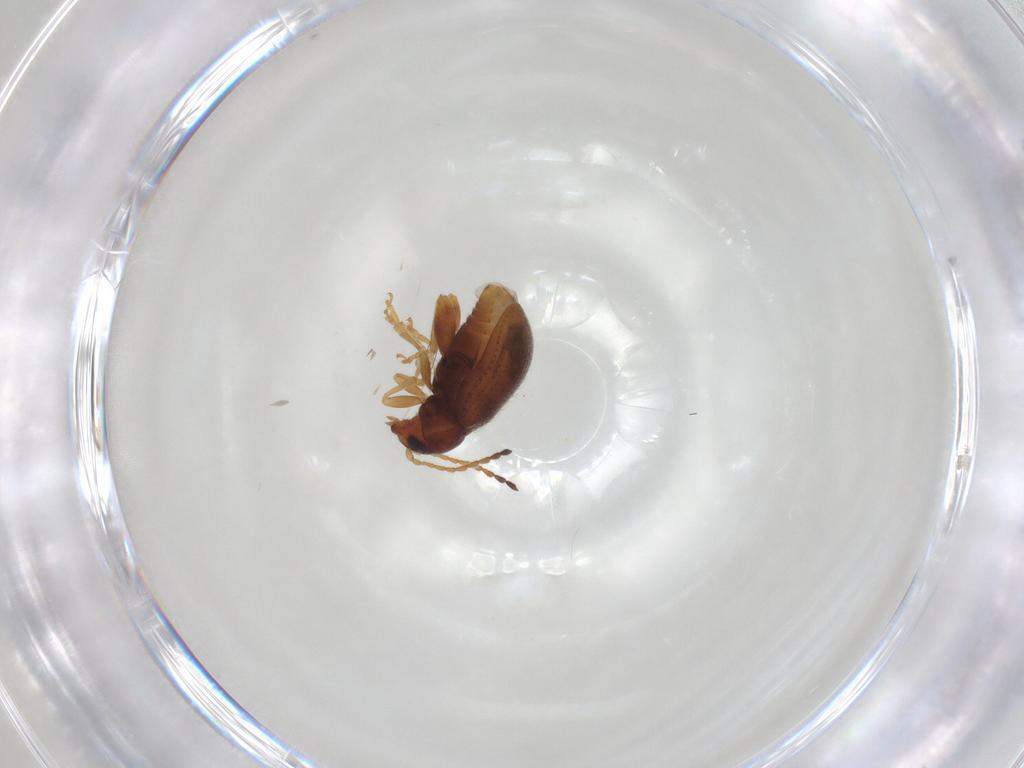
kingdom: Animalia
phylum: Arthropoda
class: Insecta
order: Coleoptera
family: Chrysomelidae
